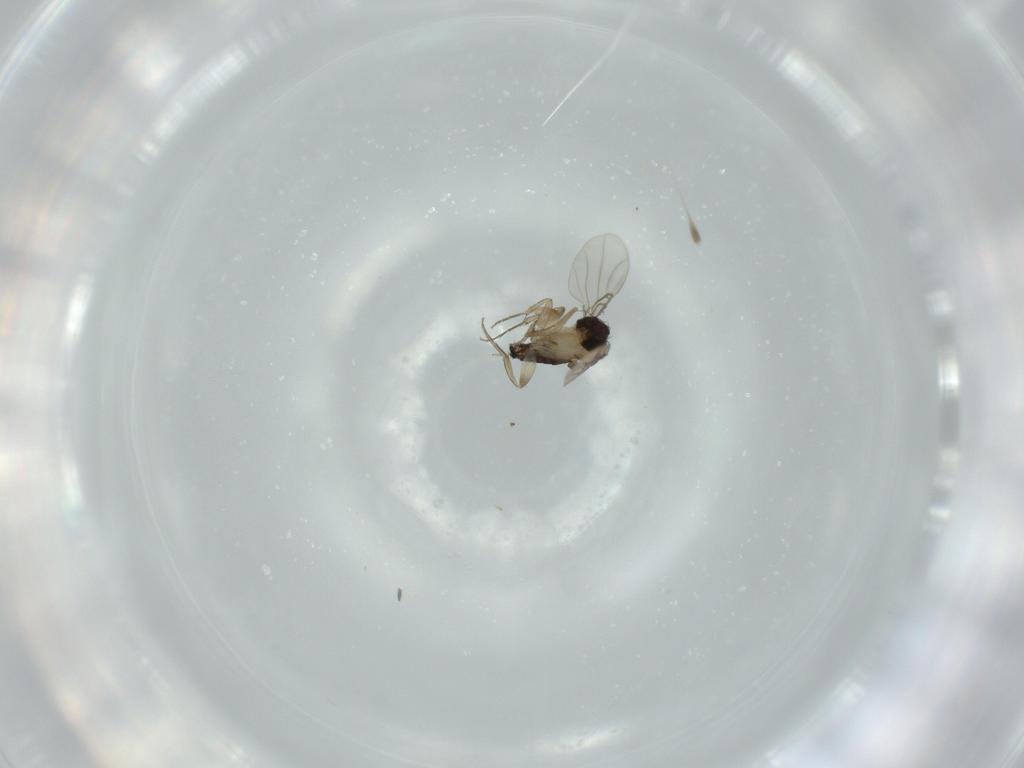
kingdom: Animalia
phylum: Arthropoda
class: Insecta
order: Diptera
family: Phoridae
